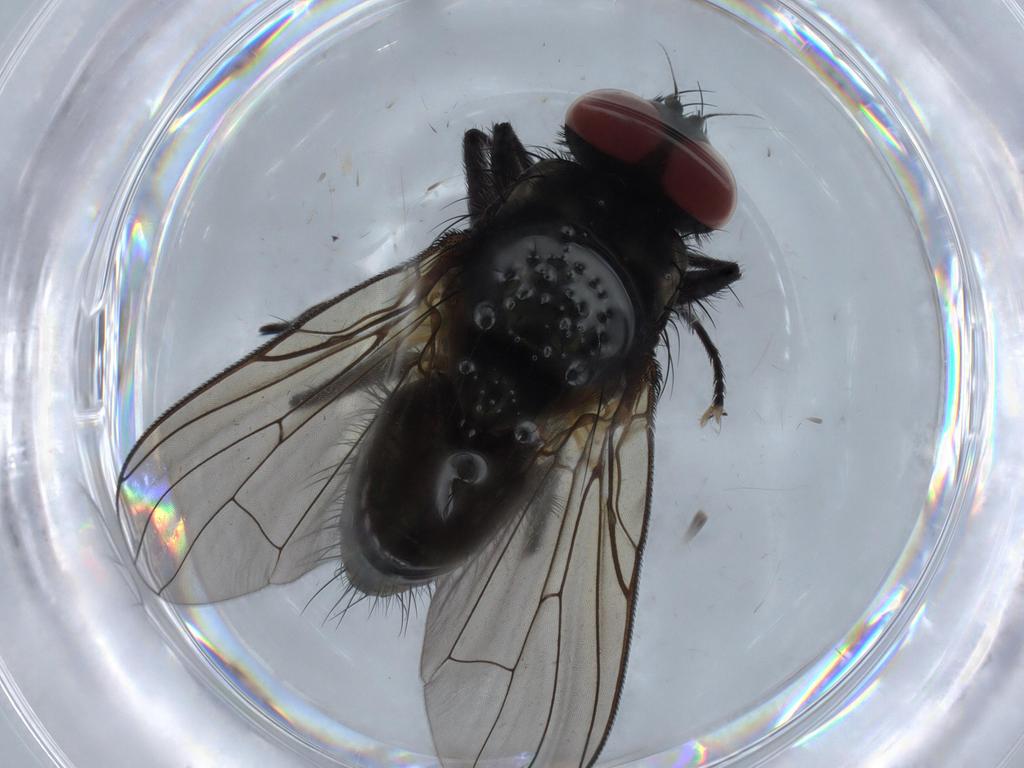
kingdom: Animalia
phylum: Arthropoda
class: Insecta
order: Diptera
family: Muscidae
